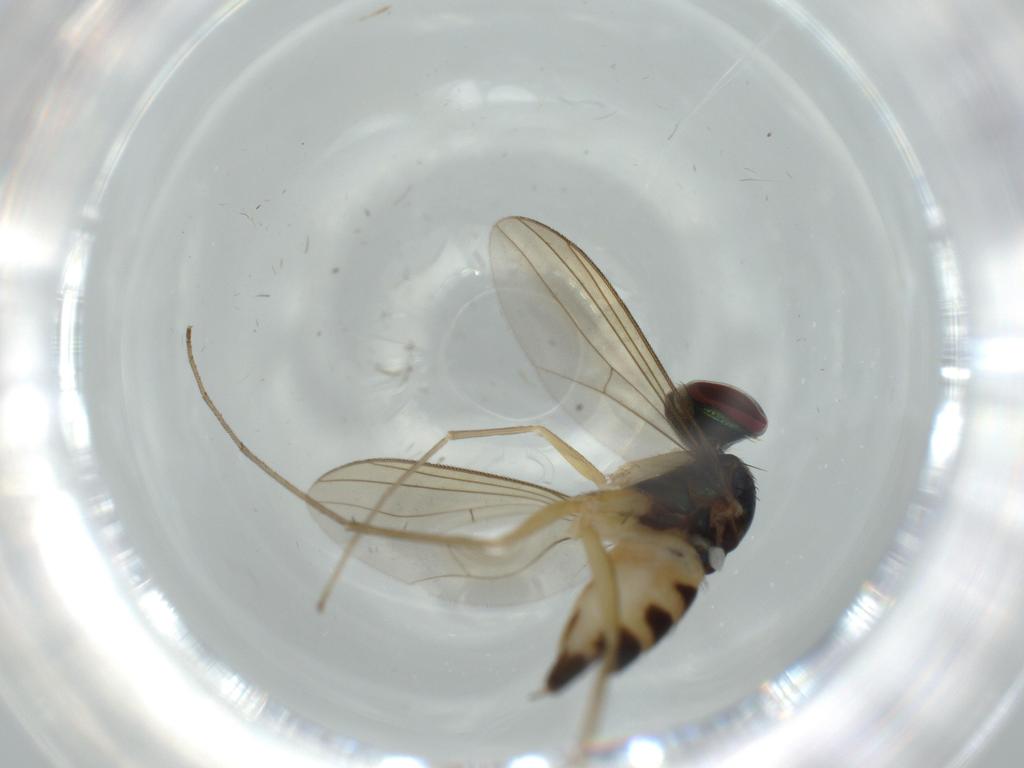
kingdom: Animalia
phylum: Arthropoda
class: Insecta
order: Diptera
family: Dolichopodidae
